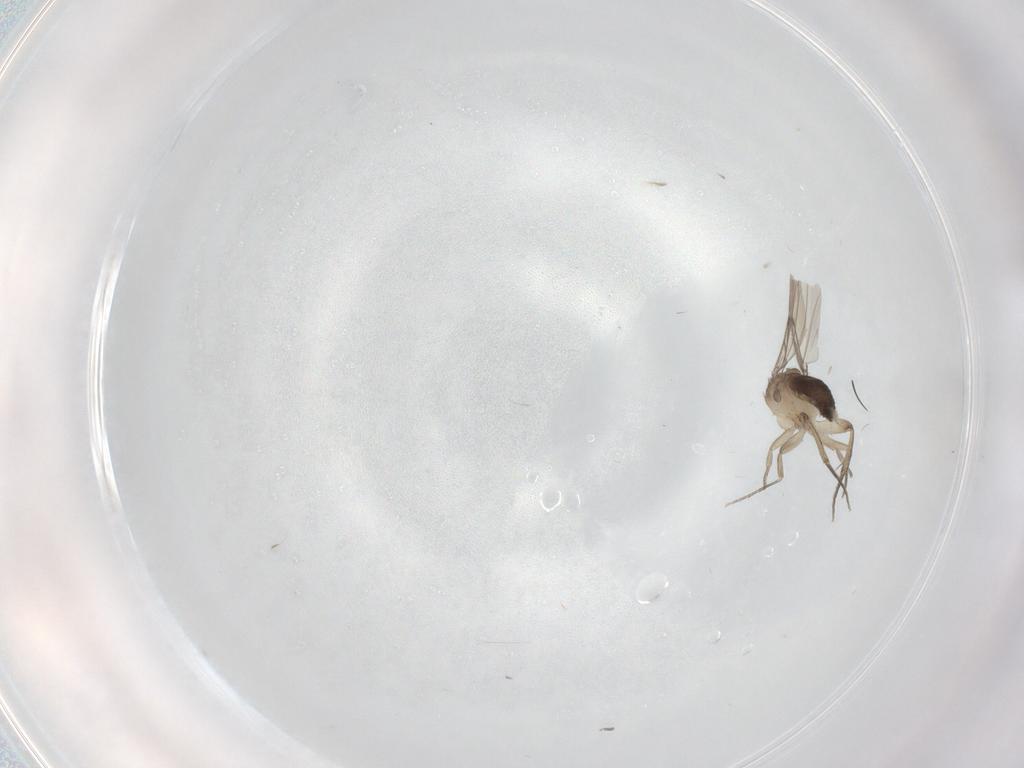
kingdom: Animalia
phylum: Arthropoda
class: Insecta
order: Diptera
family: Phoridae
